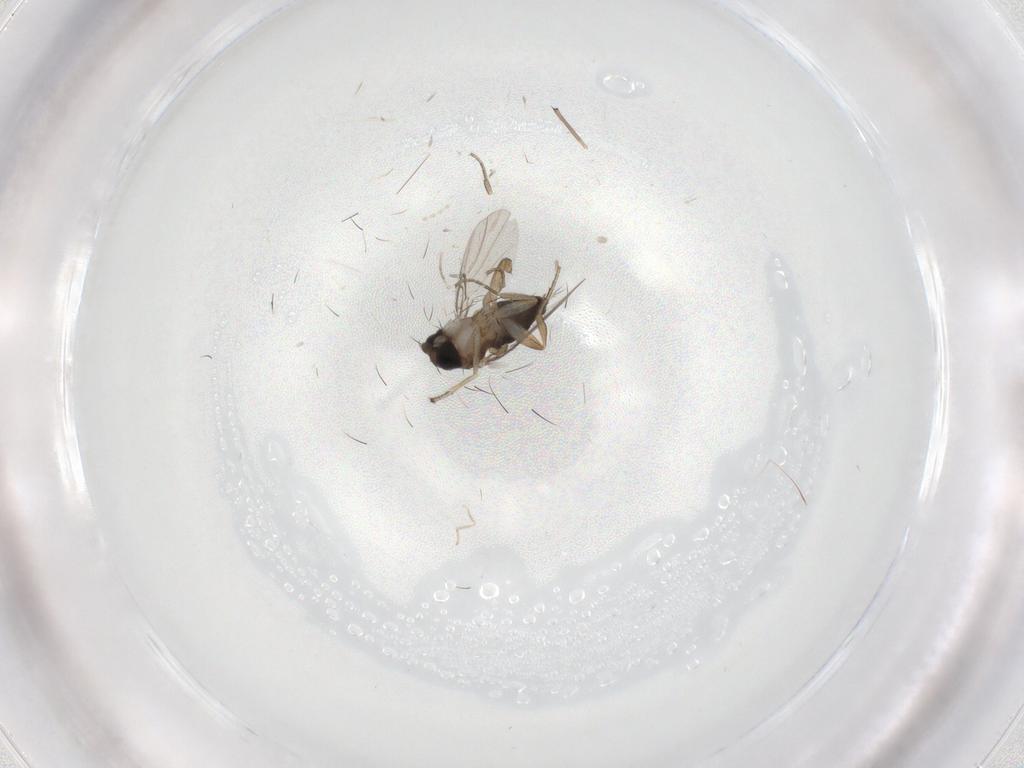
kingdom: Animalia
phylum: Arthropoda
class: Insecta
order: Diptera
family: Phoridae
